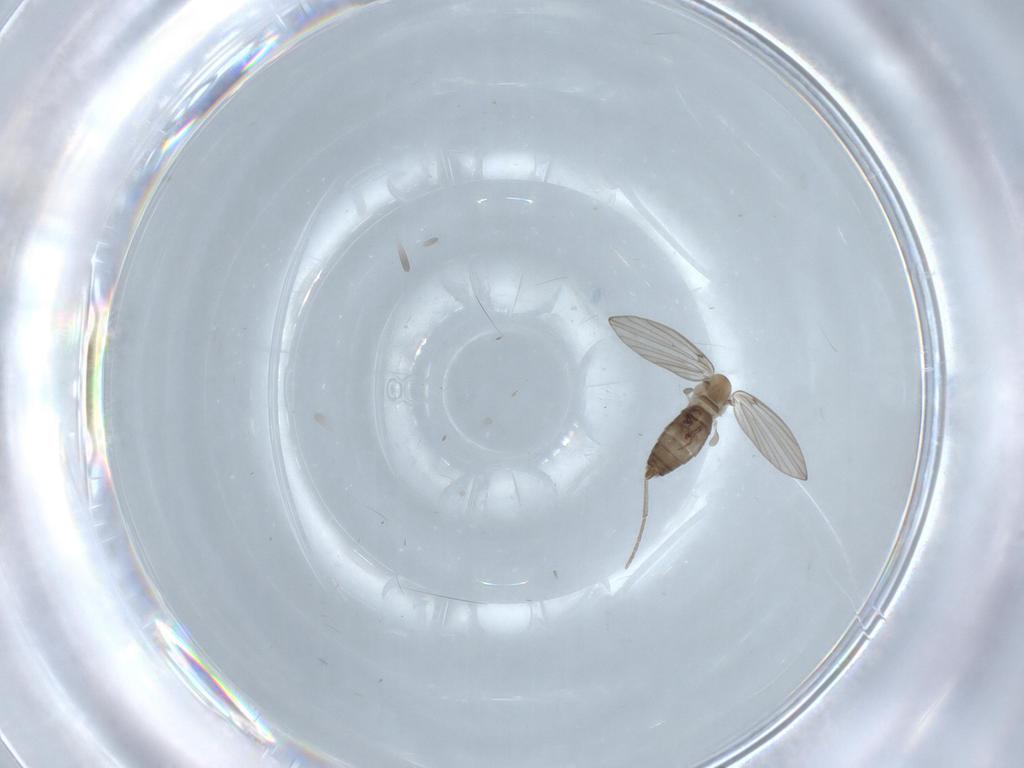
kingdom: Animalia
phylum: Arthropoda
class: Insecta
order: Diptera
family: Psychodidae
